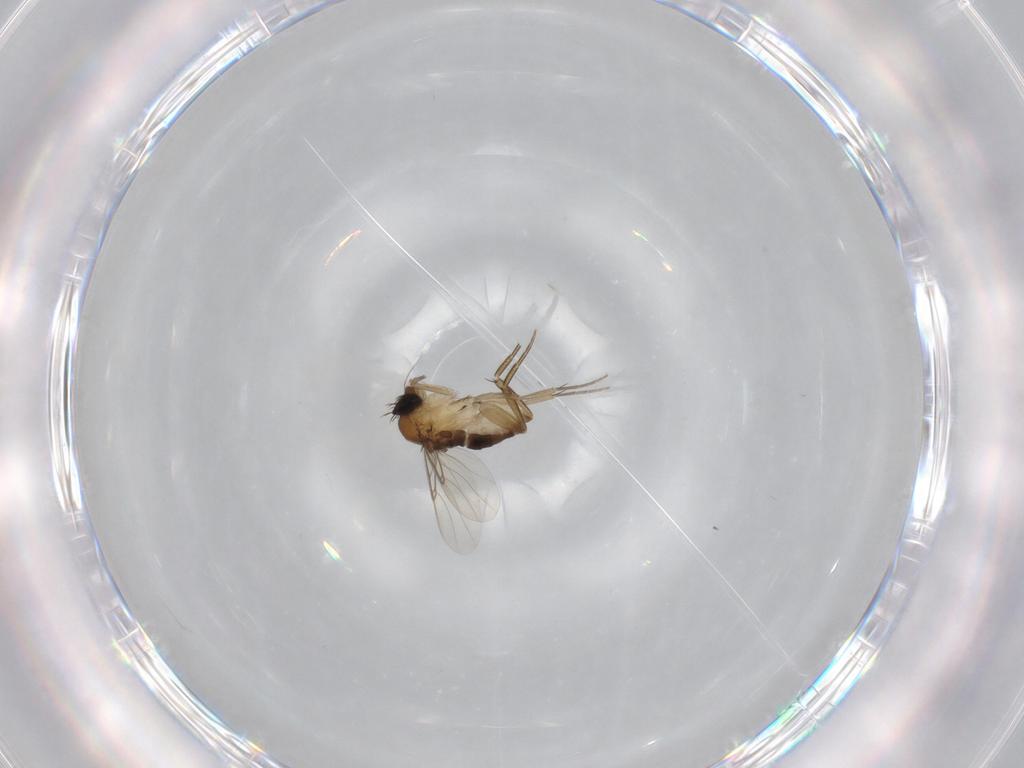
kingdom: Animalia
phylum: Arthropoda
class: Insecta
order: Diptera
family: Phoridae
